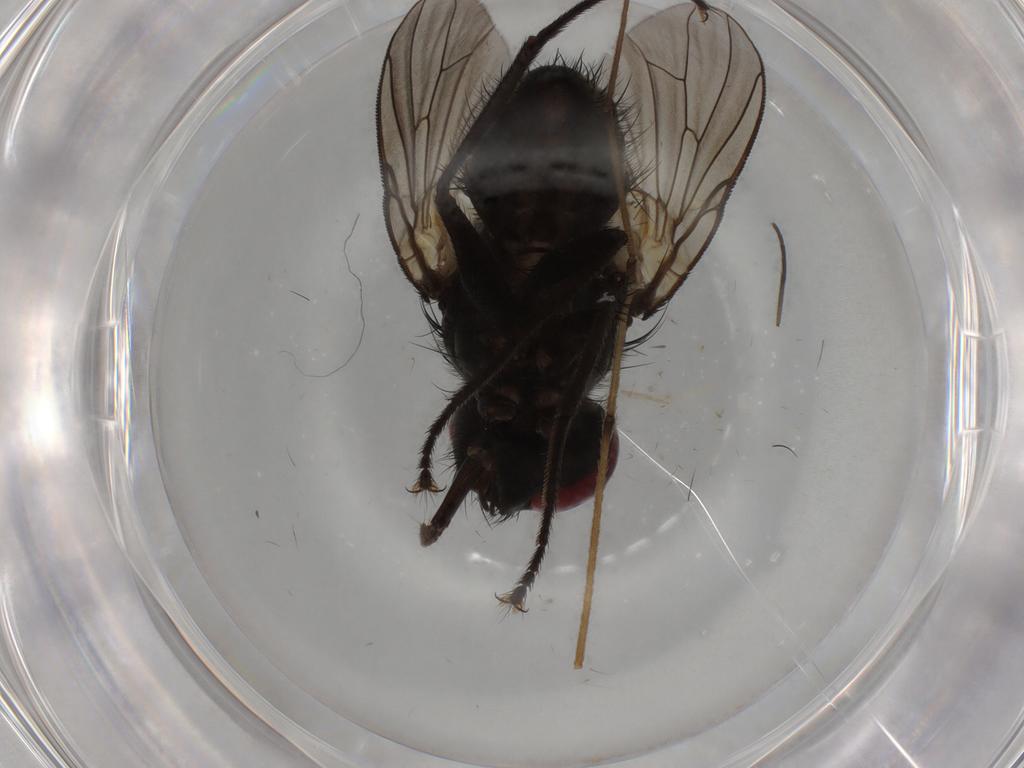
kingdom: Animalia
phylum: Arthropoda
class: Insecta
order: Diptera
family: Muscidae
